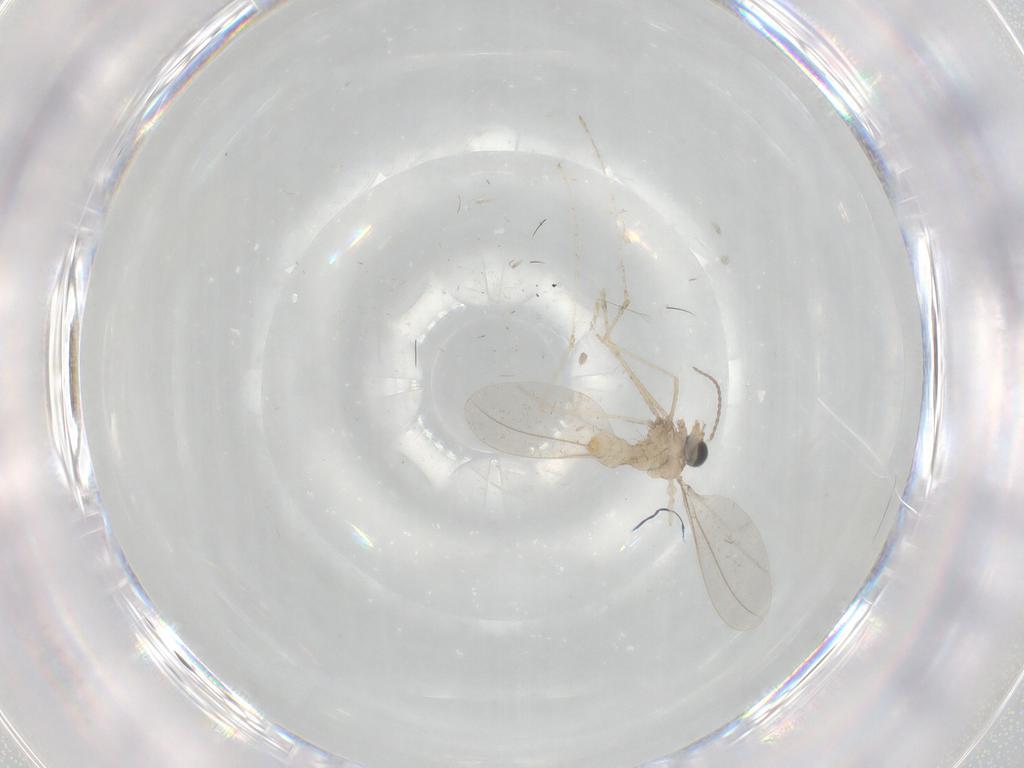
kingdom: Animalia
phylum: Arthropoda
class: Insecta
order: Diptera
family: Cecidomyiidae
